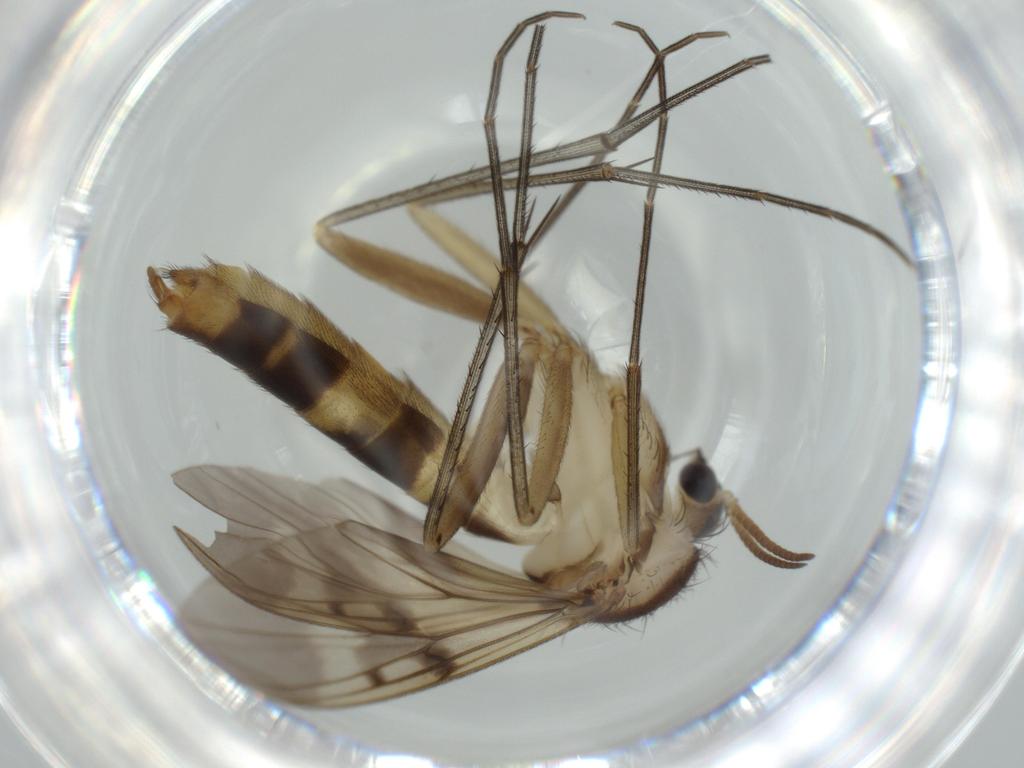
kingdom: Animalia
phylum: Arthropoda
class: Insecta
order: Diptera
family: Mycetophilidae
